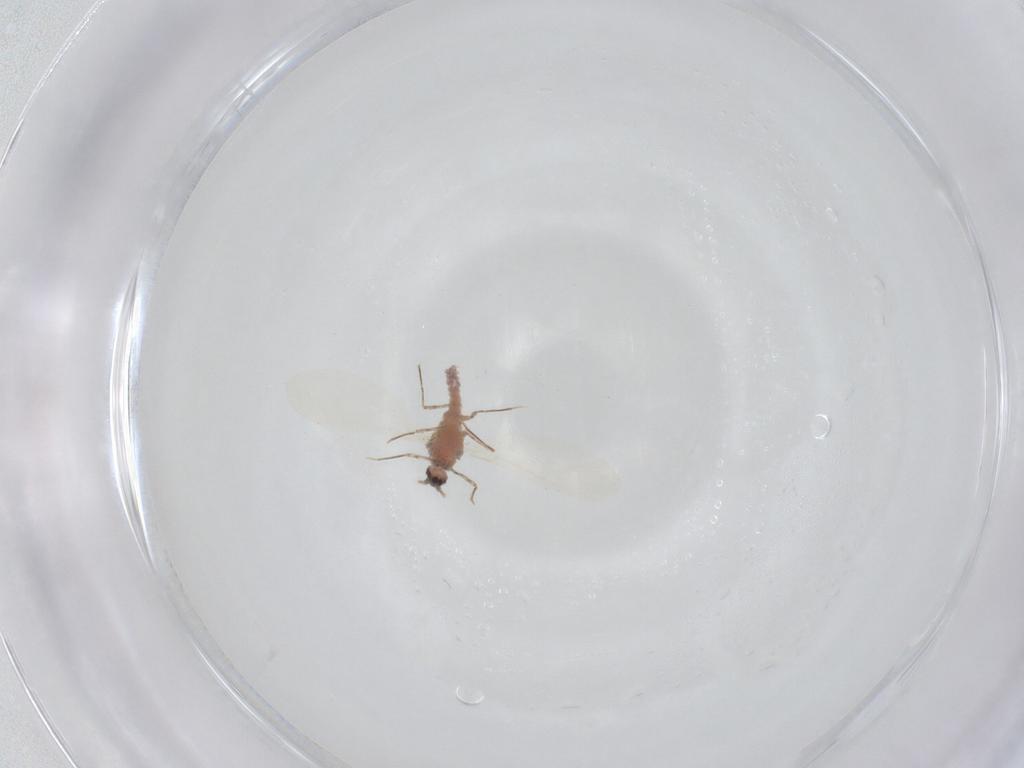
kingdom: Animalia
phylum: Arthropoda
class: Insecta
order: Hemiptera
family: Coccoidea_incertae_sedis
